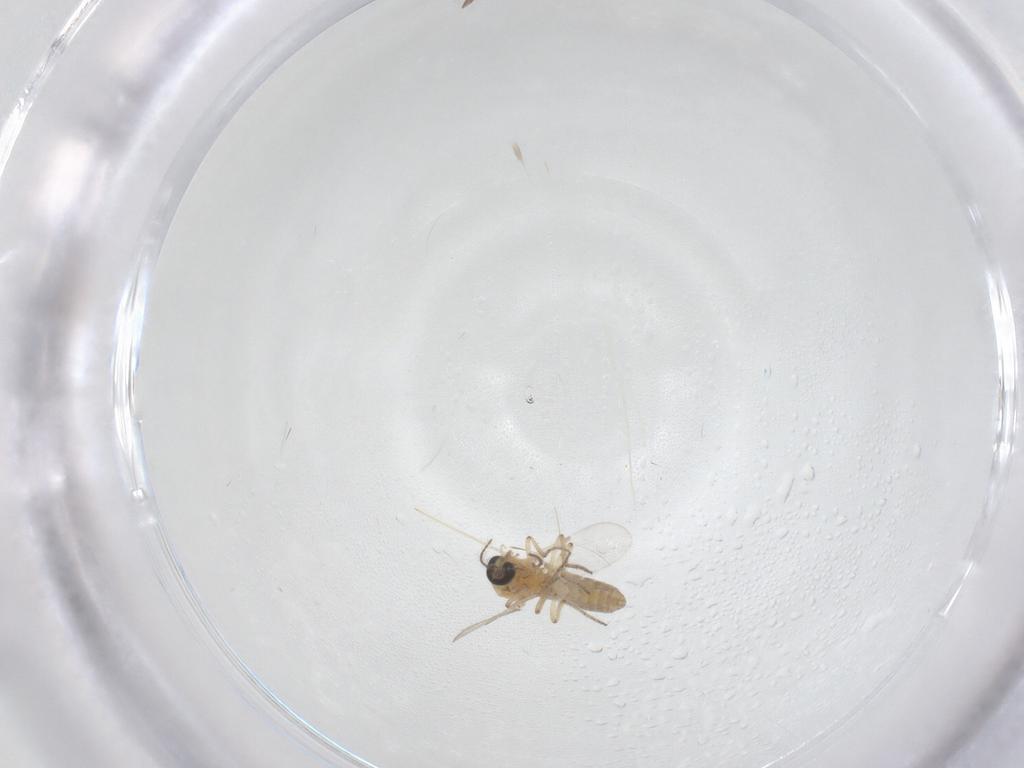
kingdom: Animalia
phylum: Arthropoda
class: Insecta
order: Diptera
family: Ceratopogonidae
